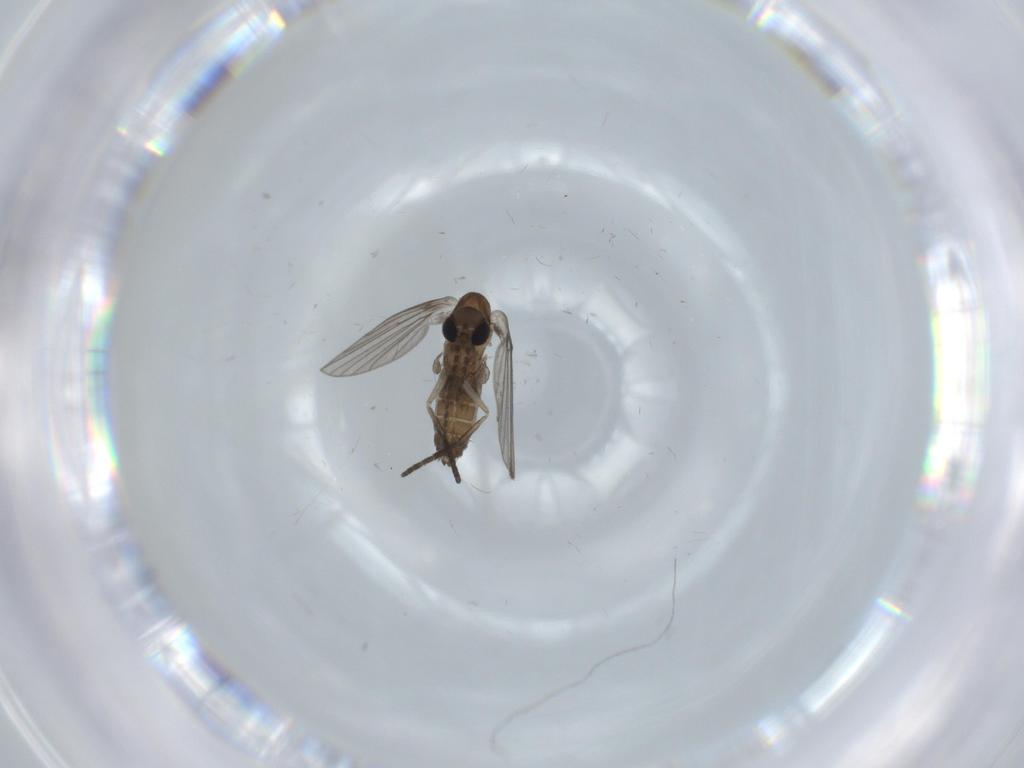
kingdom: Animalia
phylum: Arthropoda
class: Insecta
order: Diptera
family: Psychodidae
